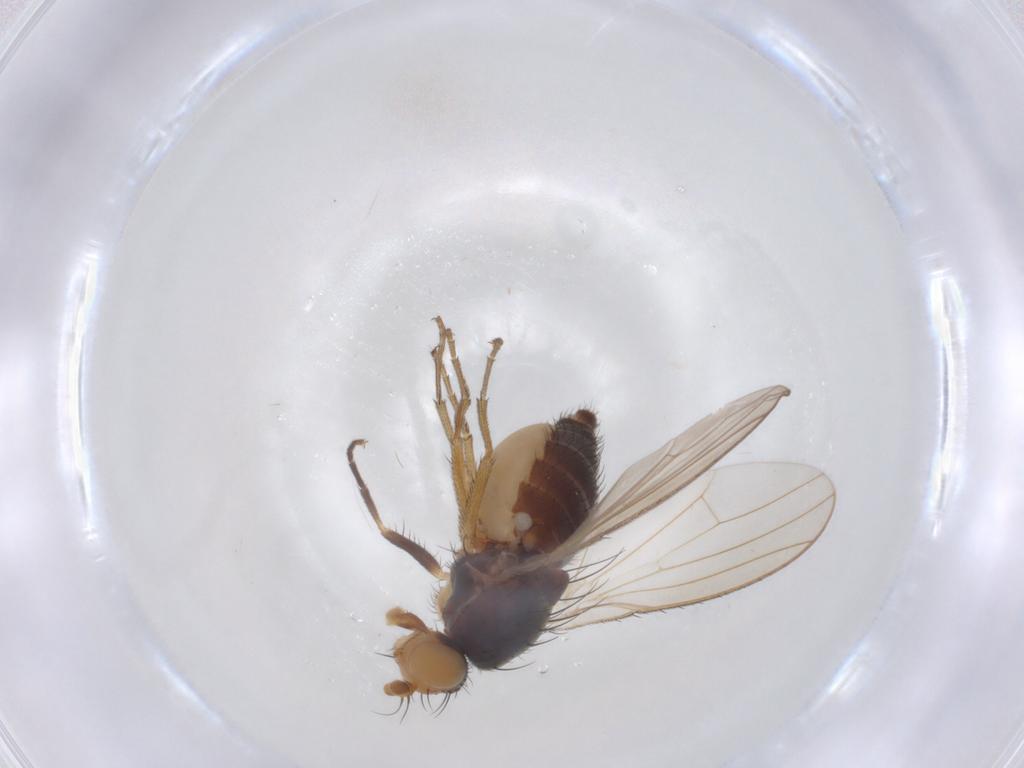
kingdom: Animalia
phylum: Arthropoda
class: Insecta
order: Diptera
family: Heleomyzidae
